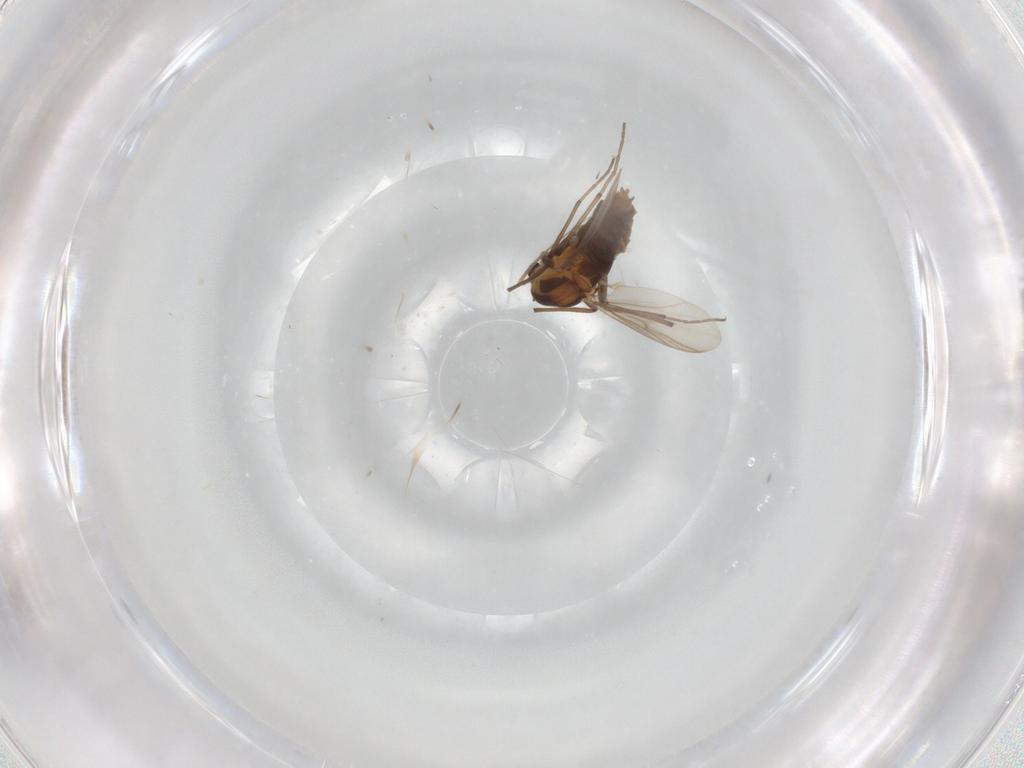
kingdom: Animalia
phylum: Arthropoda
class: Insecta
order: Diptera
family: Chironomidae
